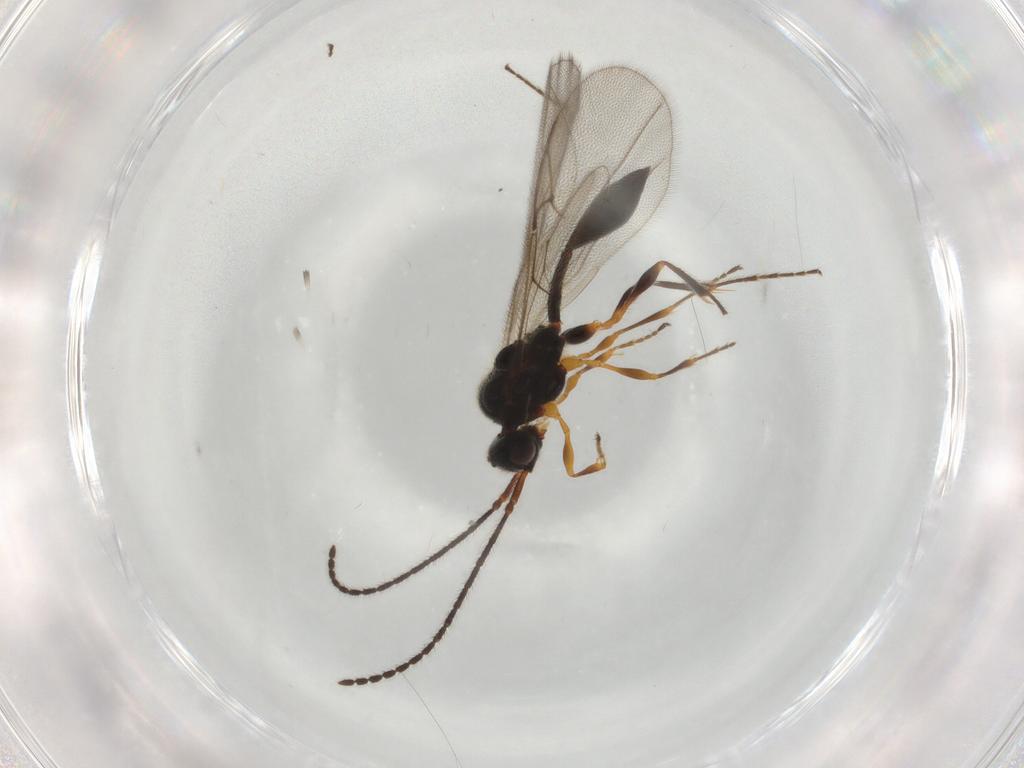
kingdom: Animalia
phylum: Arthropoda
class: Insecta
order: Hymenoptera
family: Diapriidae
